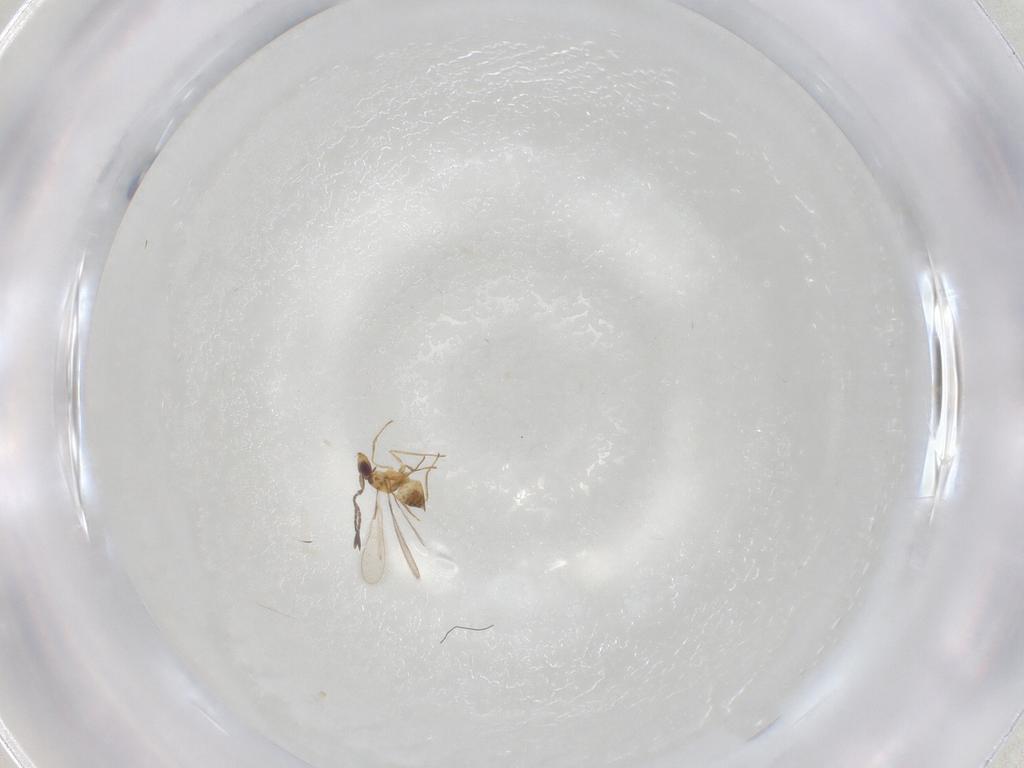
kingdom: Animalia
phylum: Arthropoda
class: Insecta
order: Hymenoptera
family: Mymaridae
